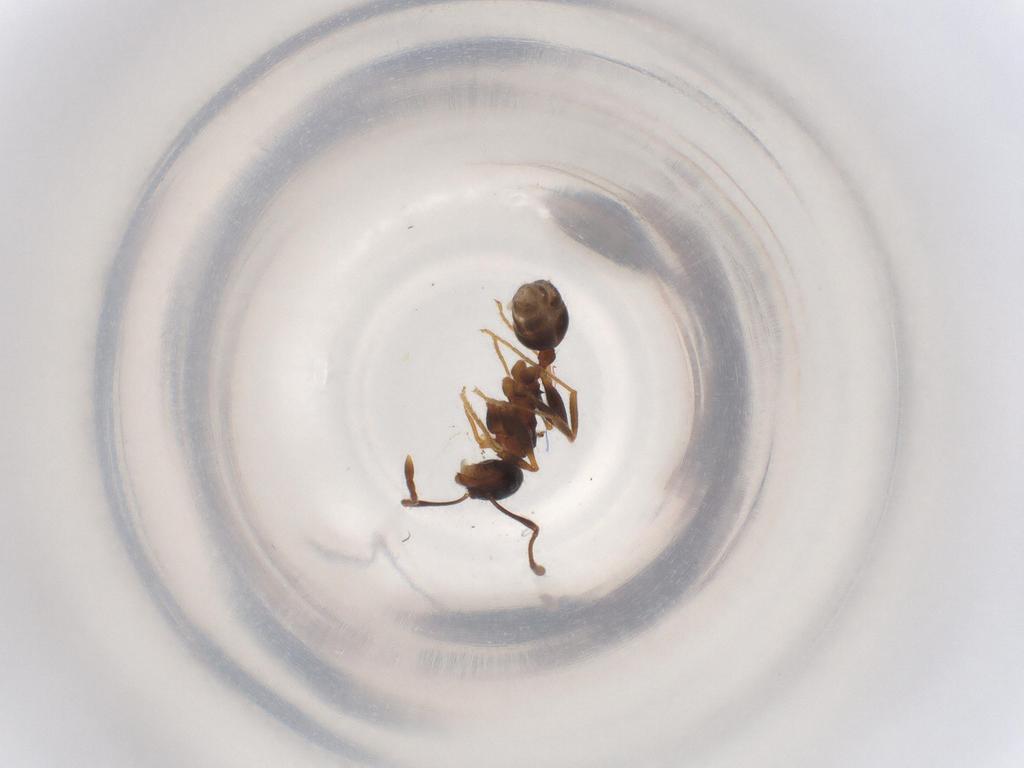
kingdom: Animalia
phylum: Arthropoda
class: Insecta
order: Hymenoptera
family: Formicidae
